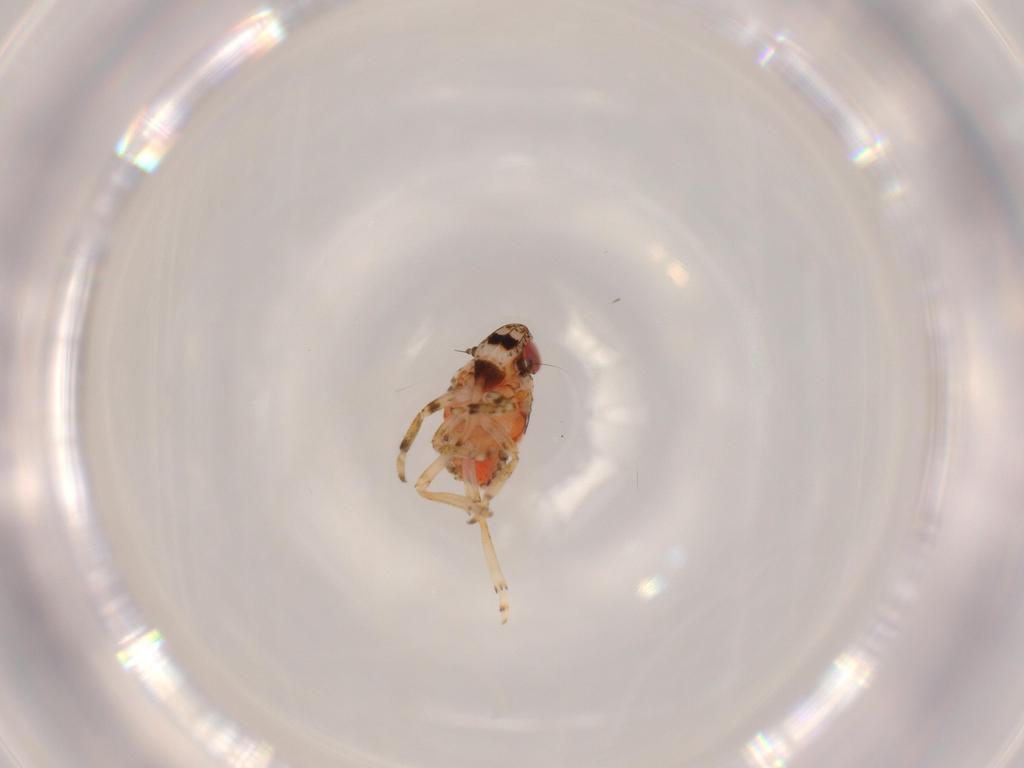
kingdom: Animalia
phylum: Arthropoda
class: Insecta
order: Hemiptera
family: Issidae
